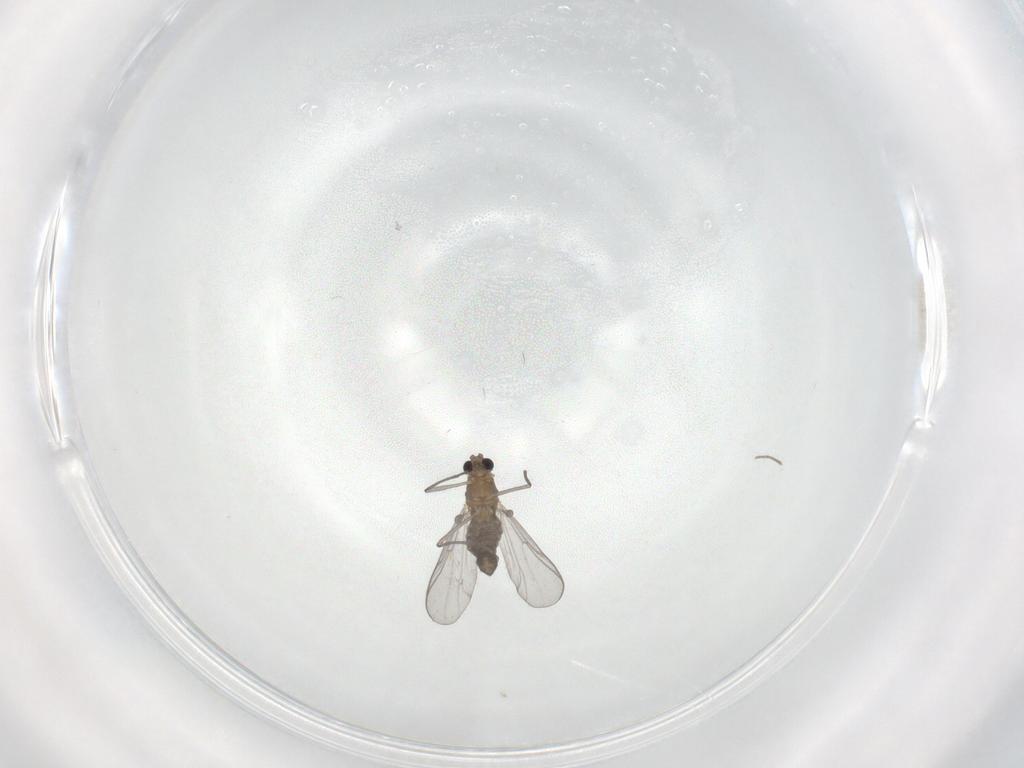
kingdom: Animalia
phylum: Arthropoda
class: Insecta
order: Diptera
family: Chironomidae
